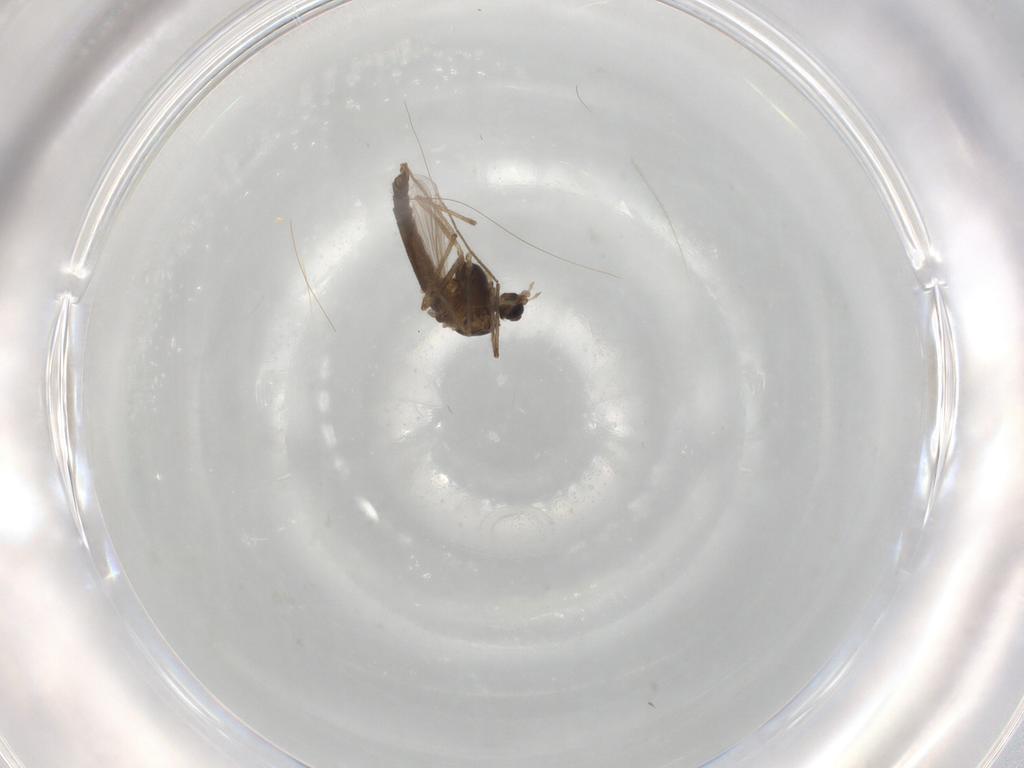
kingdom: Animalia
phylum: Arthropoda
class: Insecta
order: Diptera
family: Chironomidae
